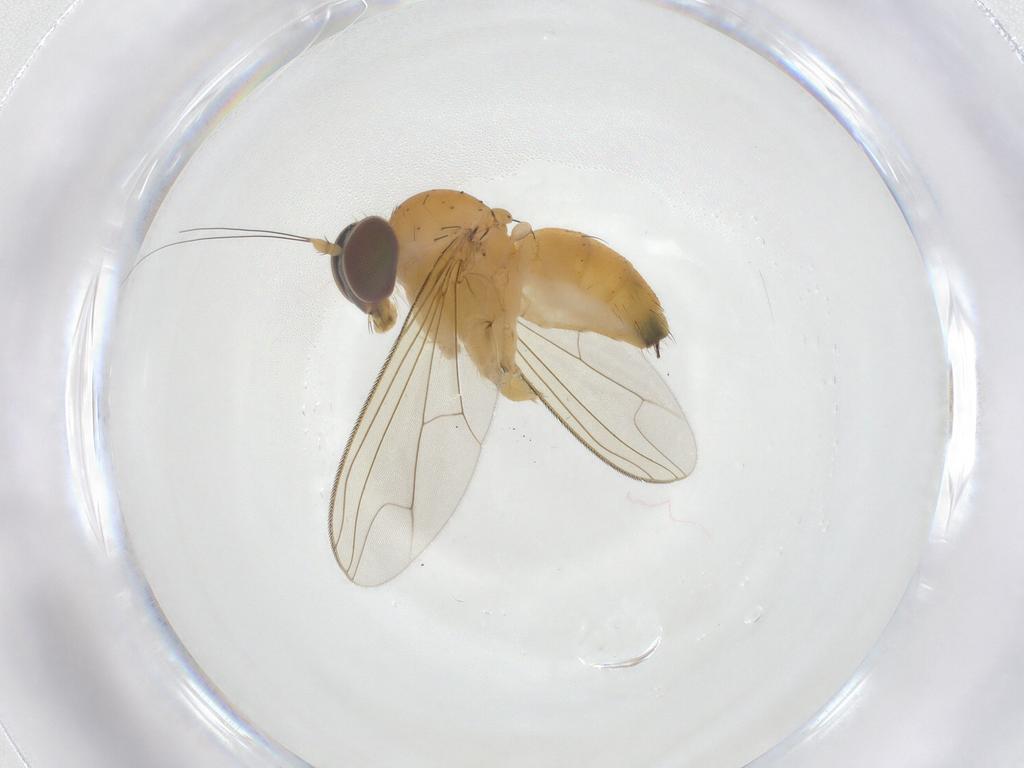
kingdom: Animalia
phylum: Arthropoda
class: Insecta
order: Diptera
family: Dolichopodidae
